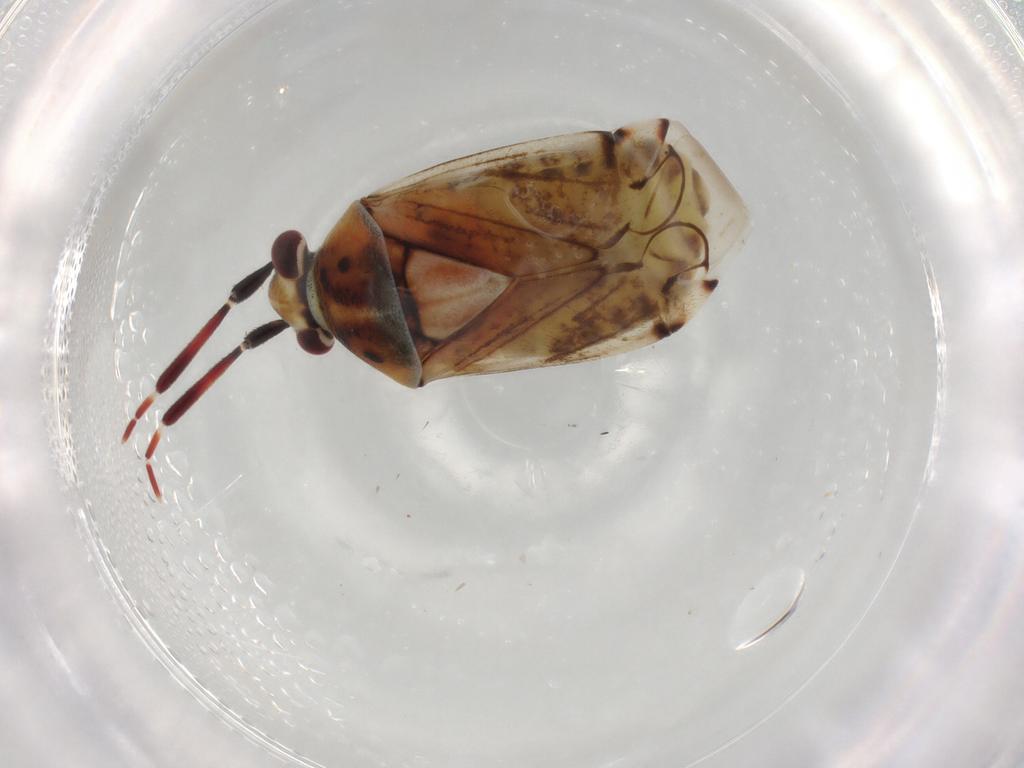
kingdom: Animalia
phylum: Arthropoda
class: Insecta
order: Hemiptera
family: Miridae
